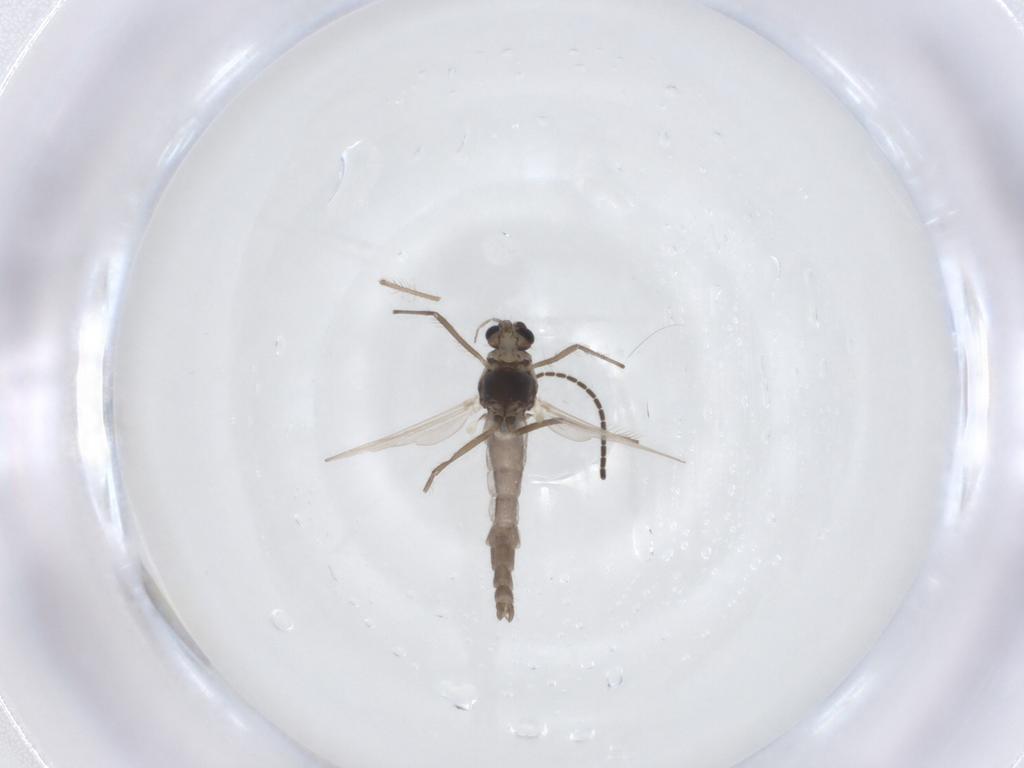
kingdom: Animalia
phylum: Arthropoda
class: Insecta
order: Diptera
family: Chironomidae
